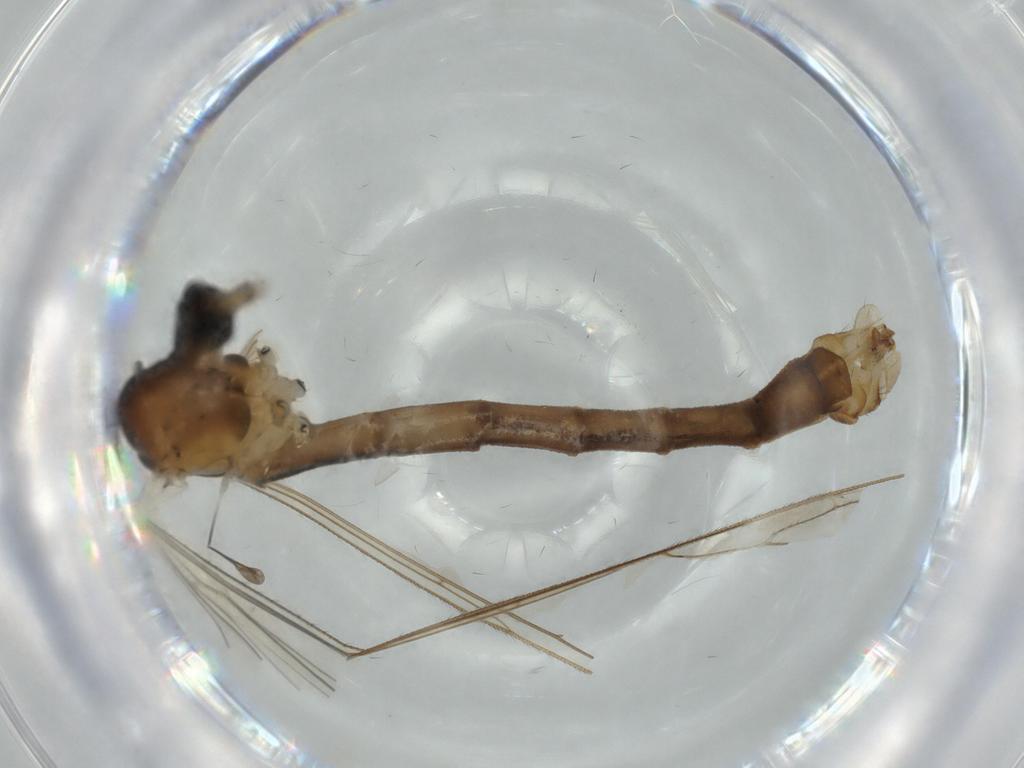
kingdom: Animalia
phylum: Arthropoda
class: Insecta
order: Diptera
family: Sciaridae
